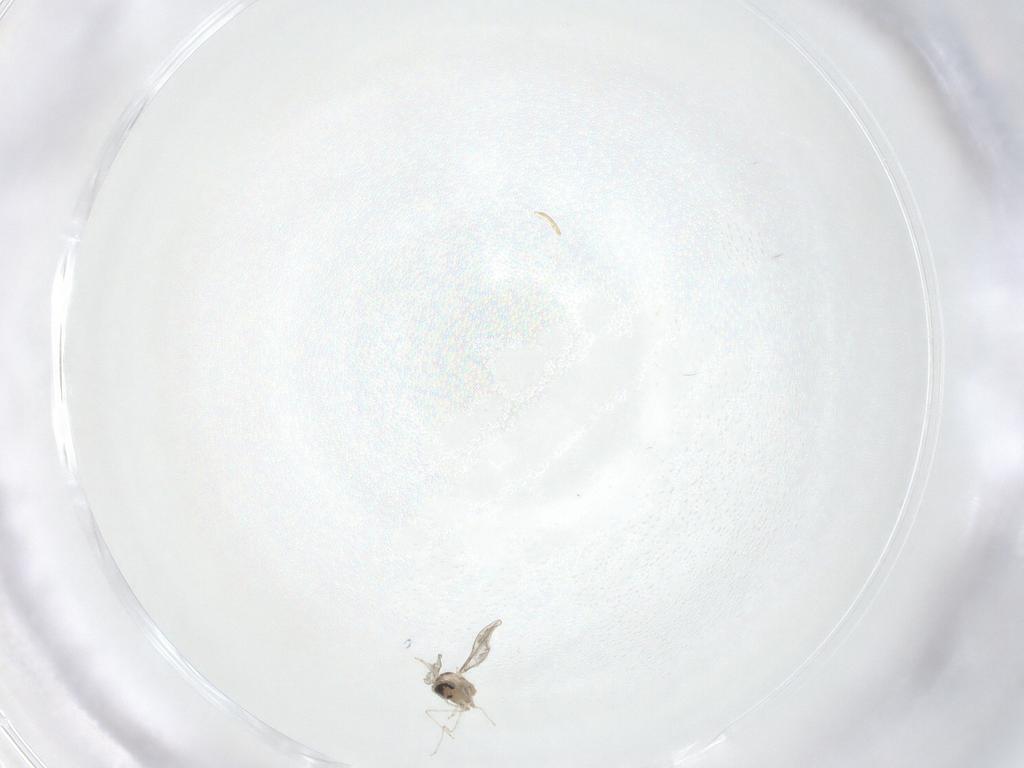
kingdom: Animalia
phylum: Arthropoda
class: Insecta
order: Diptera
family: Cecidomyiidae
